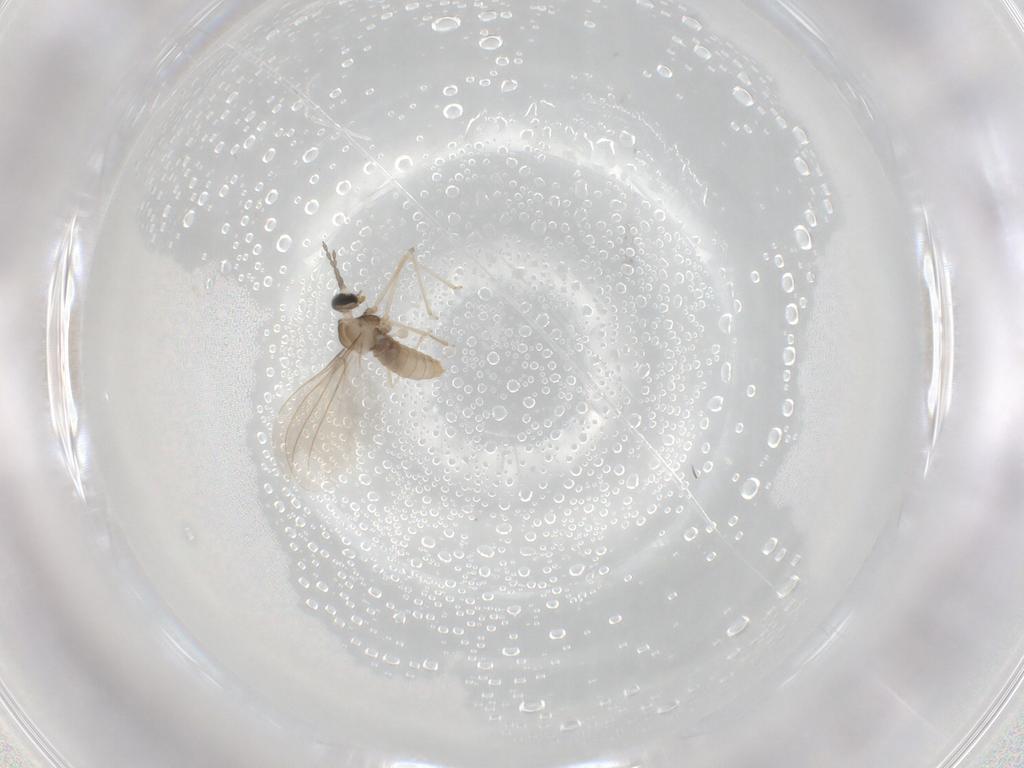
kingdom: Animalia
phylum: Arthropoda
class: Insecta
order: Diptera
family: Cecidomyiidae
